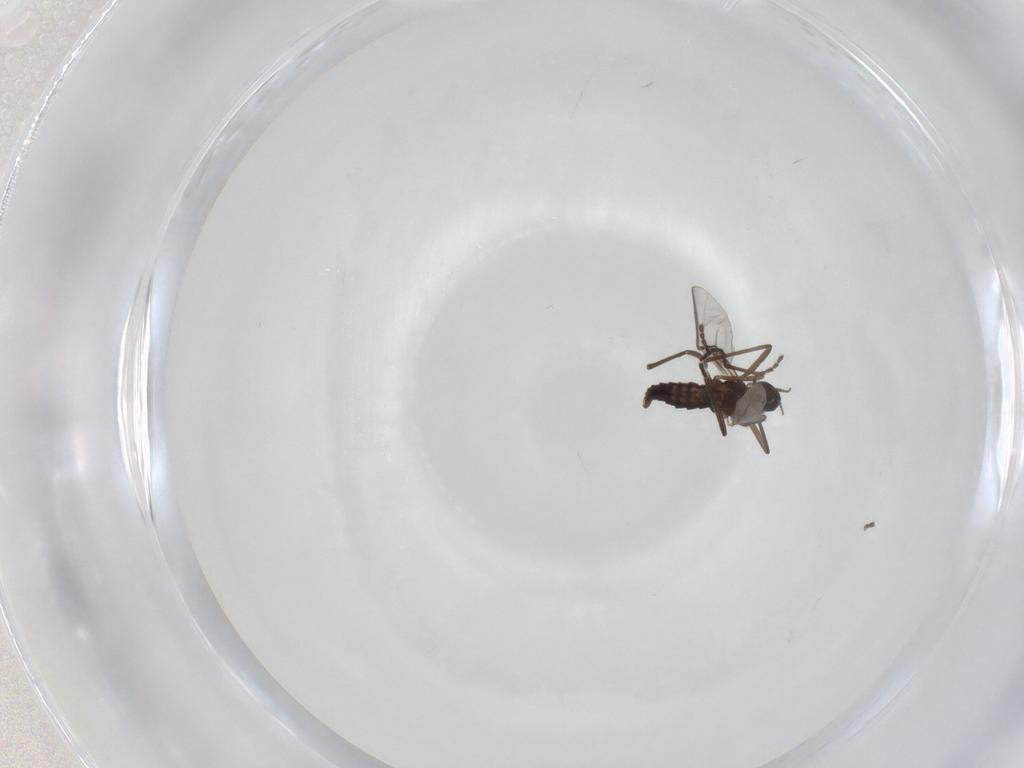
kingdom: Animalia
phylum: Arthropoda
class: Insecta
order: Diptera
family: Cecidomyiidae
